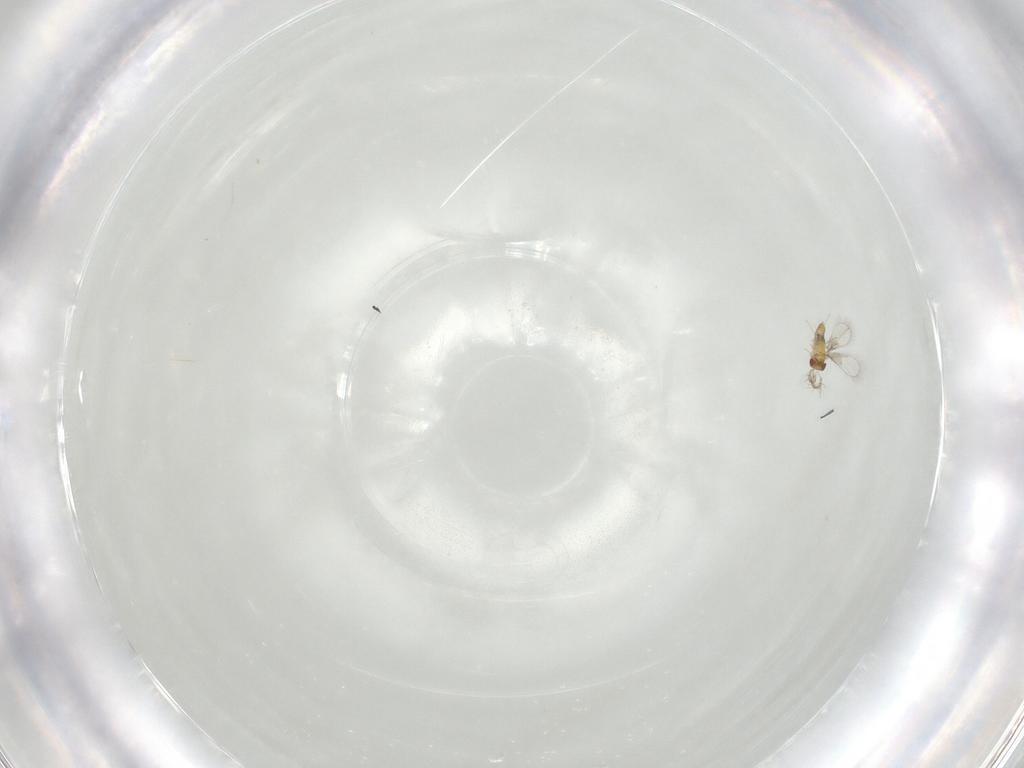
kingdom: Animalia
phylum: Arthropoda
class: Insecta
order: Hymenoptera
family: Trichogrammatidae
